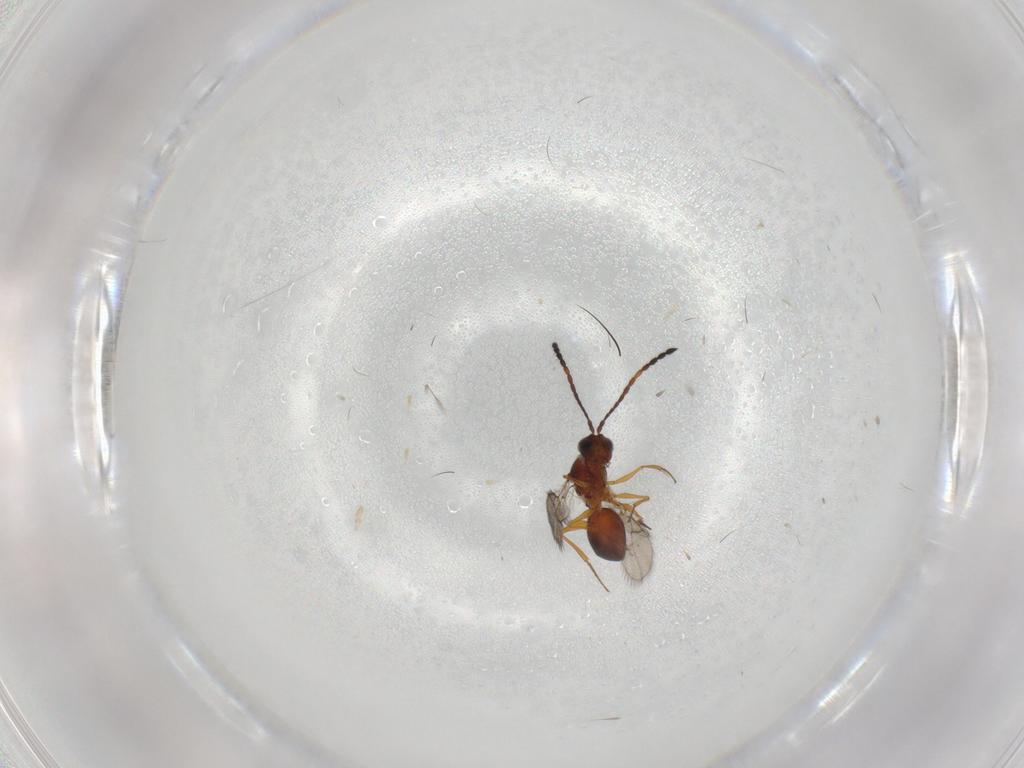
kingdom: Animalia
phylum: Arthropoda
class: Insecta
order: Hymenoptera
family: Figitidae
